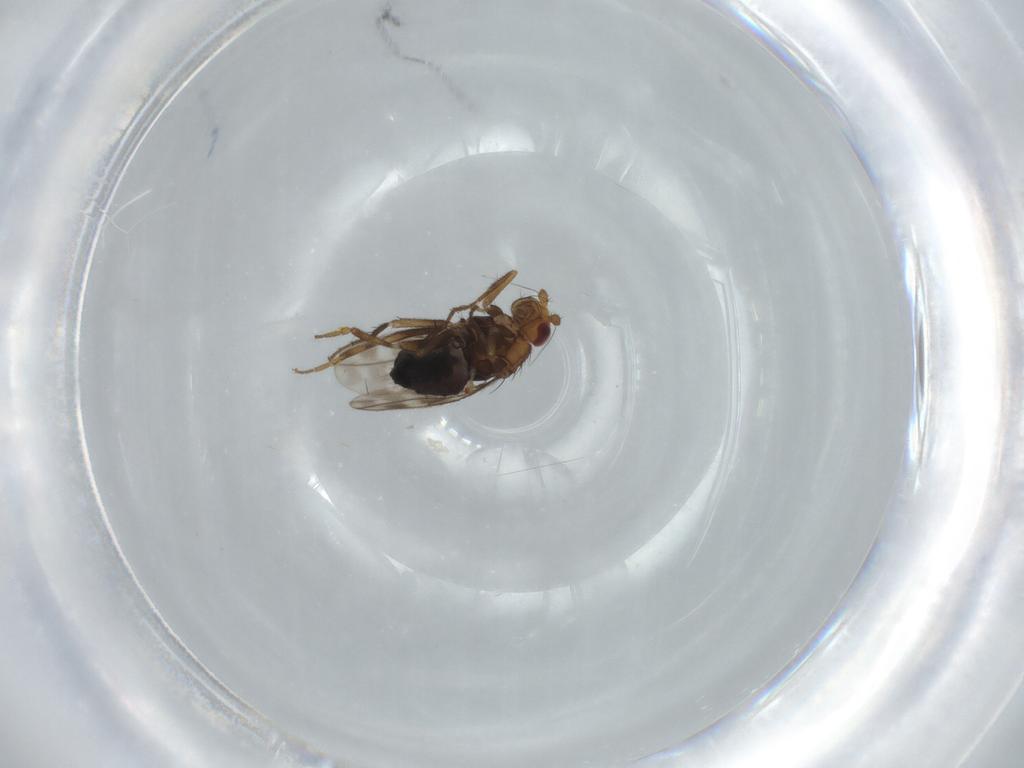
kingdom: Animalia
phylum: Arthropoda
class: Insecta
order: Diptera
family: Sphaeroceridae
